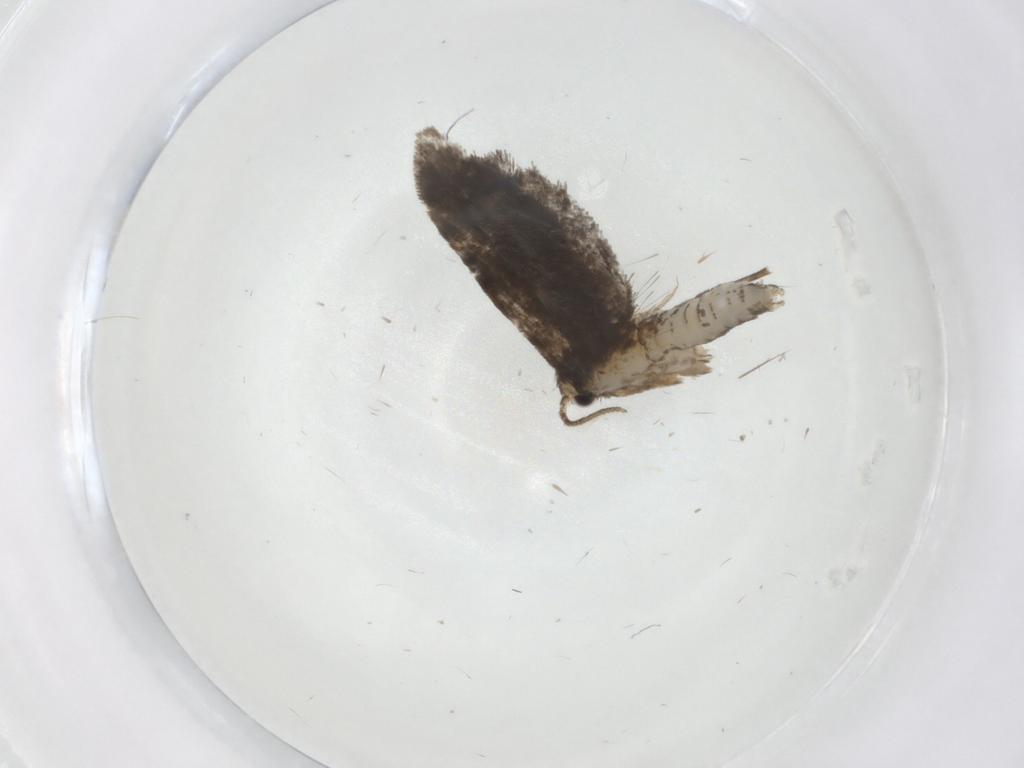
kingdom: Animalia
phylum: Arthropoda
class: Insecta
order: Lepidoptera
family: Psychidae
